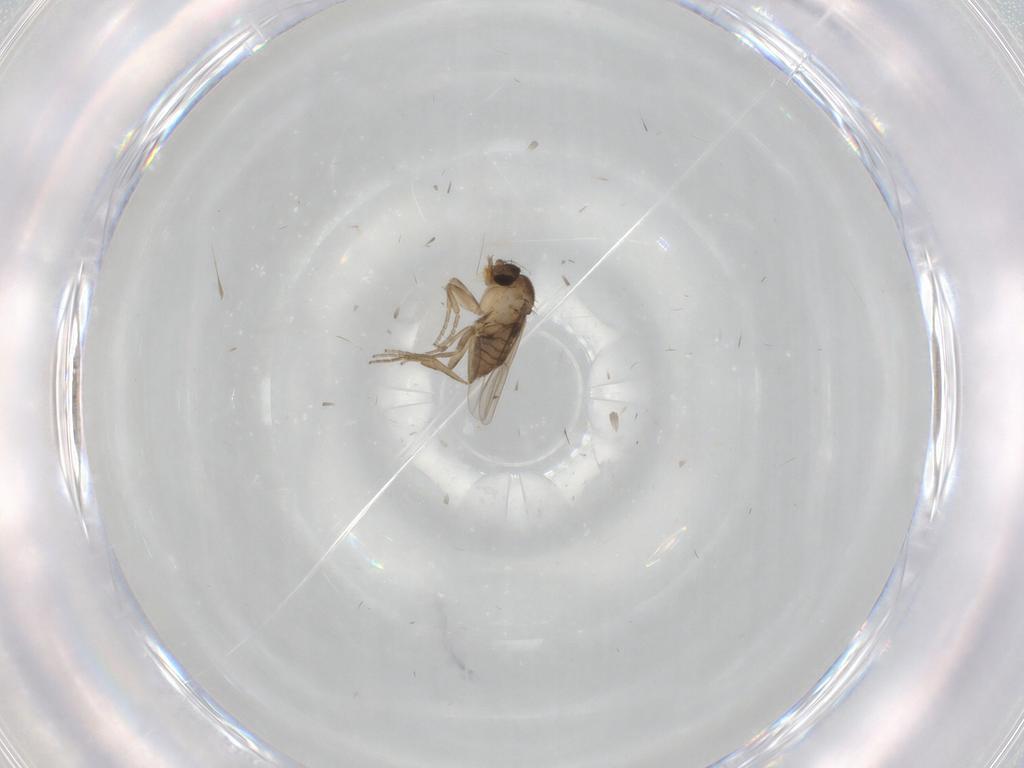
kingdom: Animalia
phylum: Arthropoda
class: Insecta
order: Diptera
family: Phoridae
